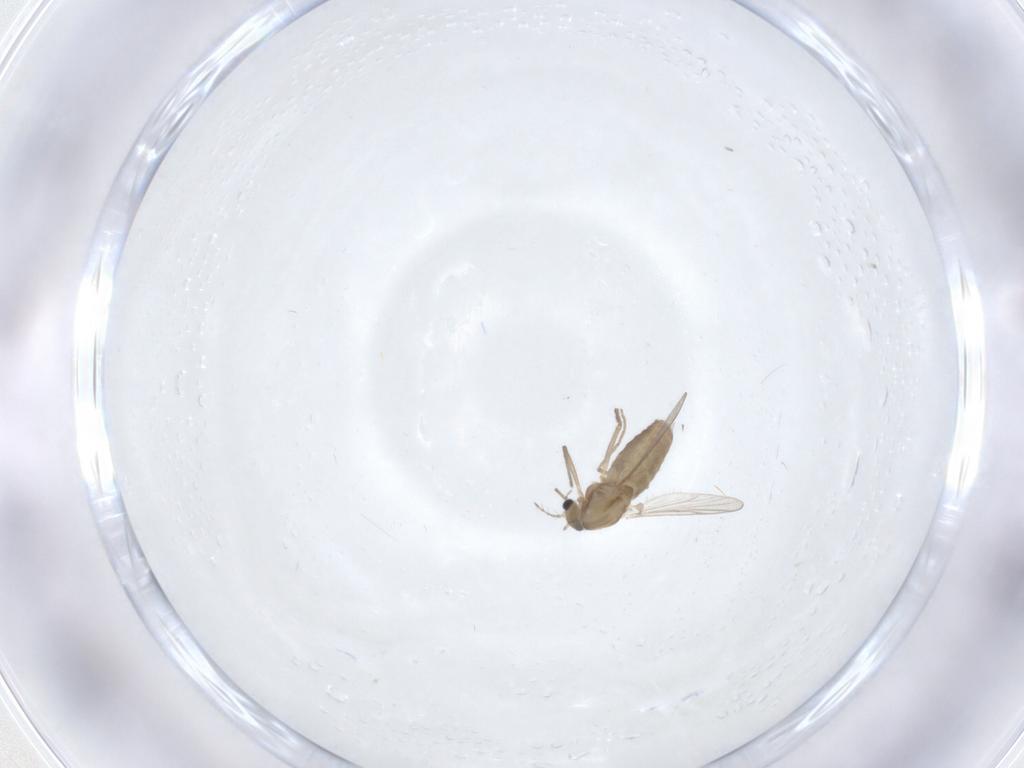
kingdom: Animalia
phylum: Arthropoda
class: Insecta
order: Diptera
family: Chironomidae
